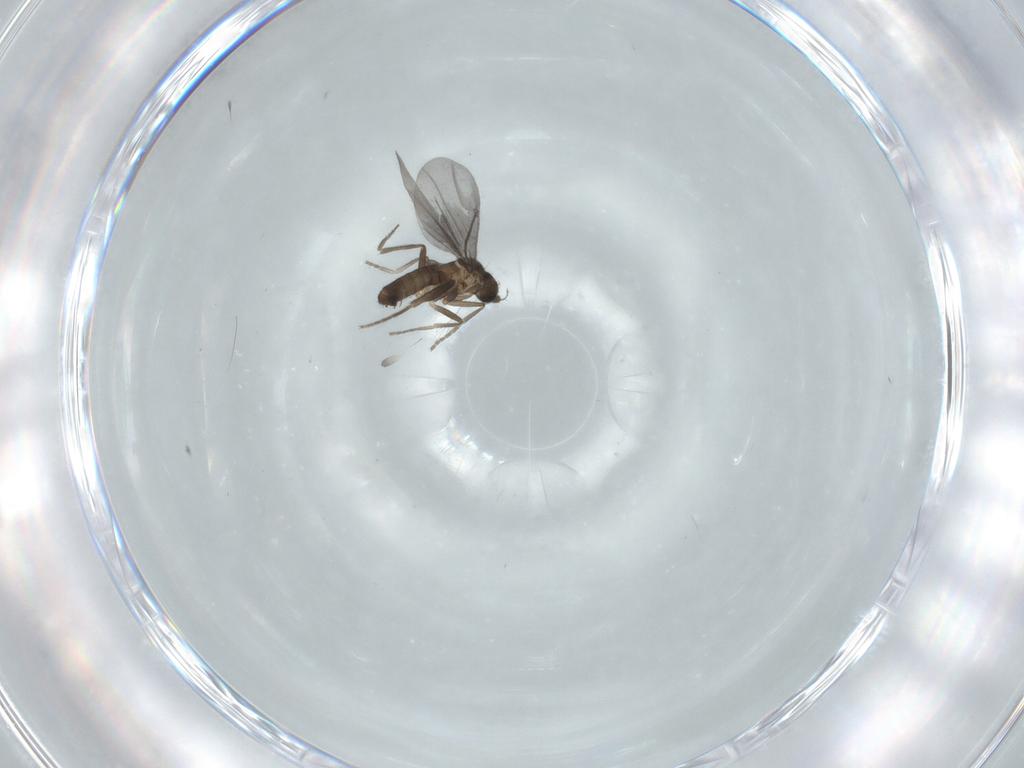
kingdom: Animalia
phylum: Arthropoda
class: Insecta
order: Diptera
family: Phoridae
